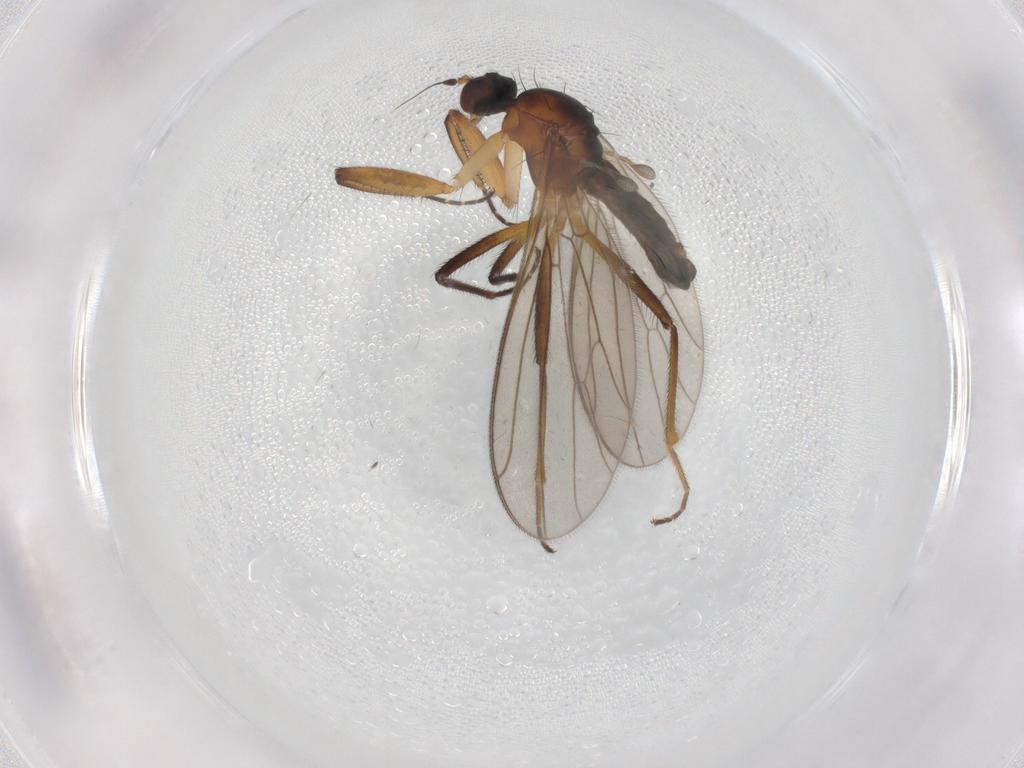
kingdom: Animalia
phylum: Arthropoda
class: Insecta
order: Diptera
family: Empididae
